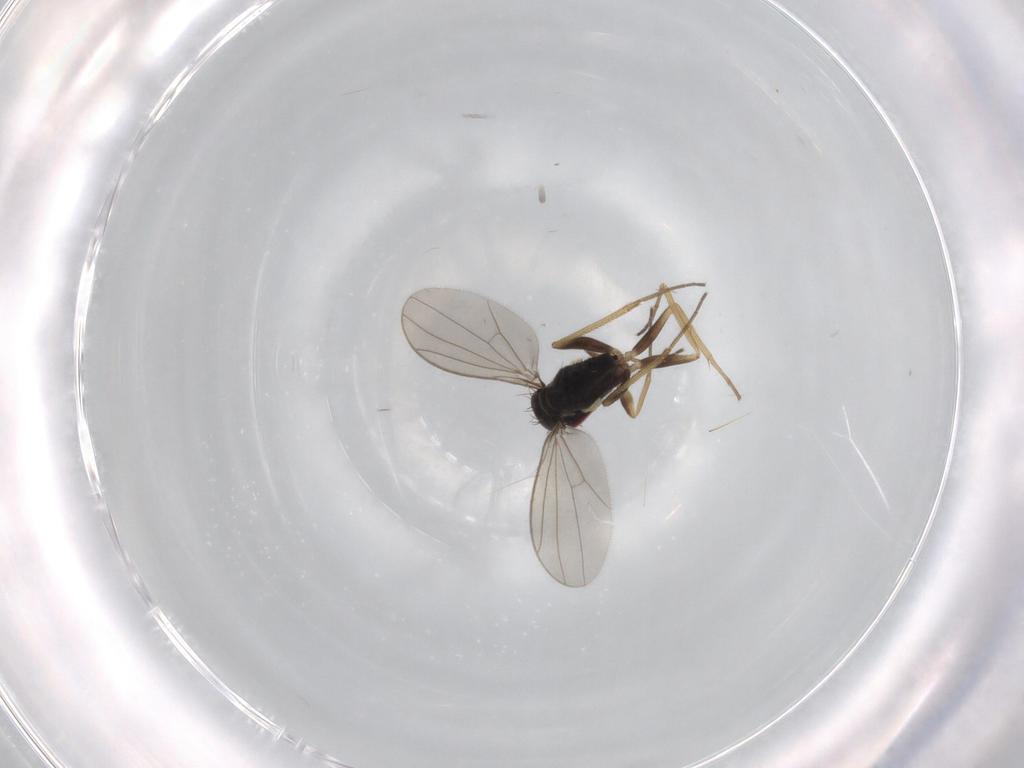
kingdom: Animalia
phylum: Arthropoda
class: Insecta
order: Diptera
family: Dolichopodidae
